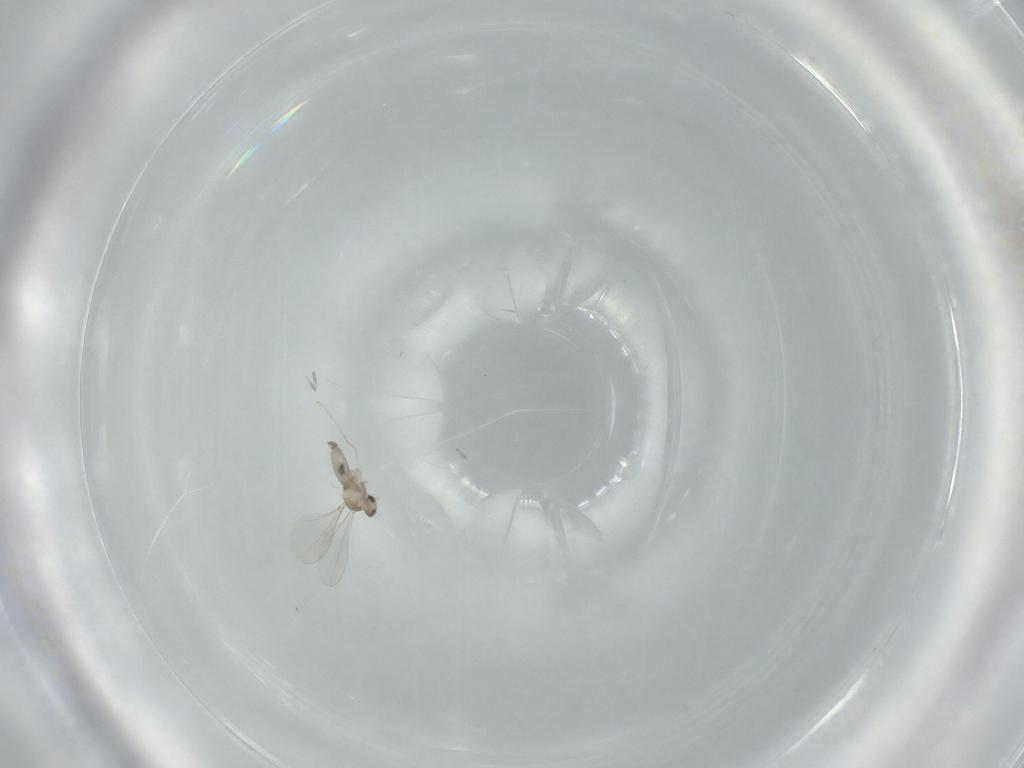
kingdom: Animalia
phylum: Arthropoda
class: Insecta
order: Diptera
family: Cecidomyiidae
